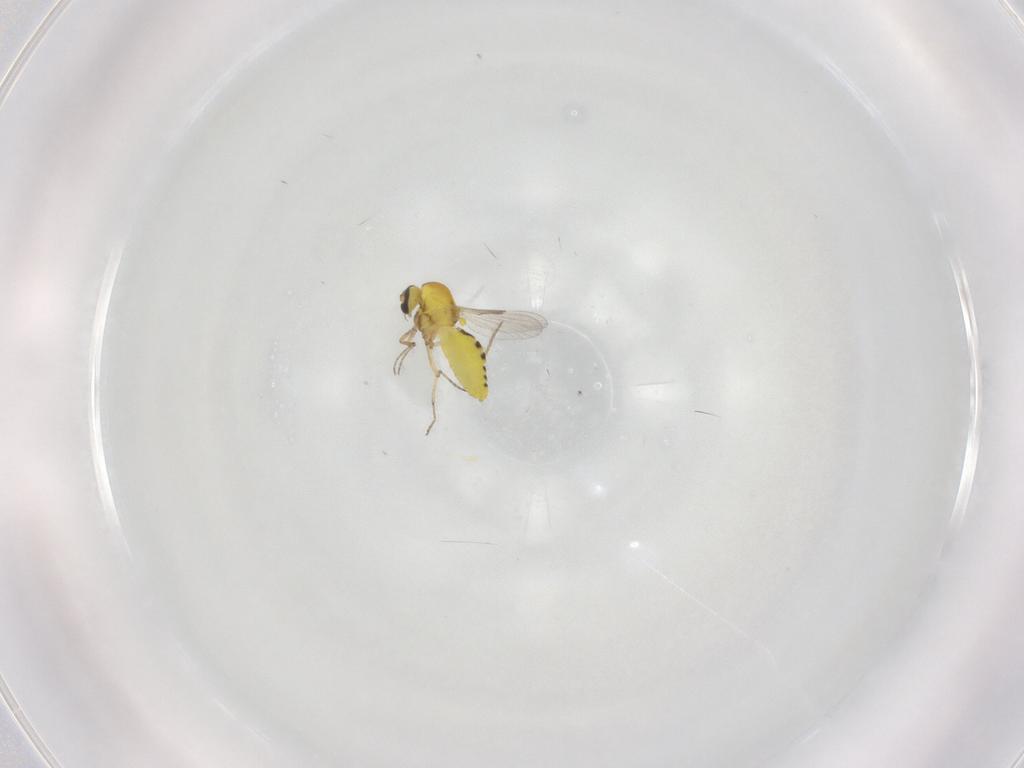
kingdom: Animalia
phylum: Arthropoda
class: Insecta
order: Diptera
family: Ceratopogonidae
